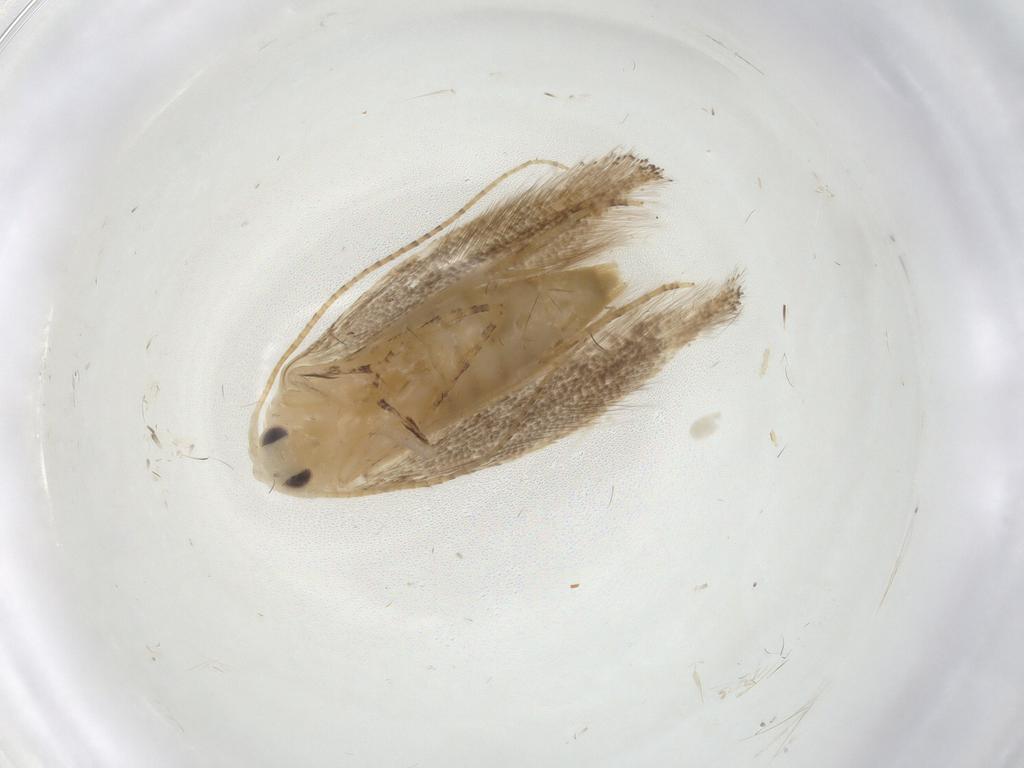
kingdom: Animalia
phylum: Arthropoda
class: Insecta
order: Lepidoptera
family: Bucculatricidae
